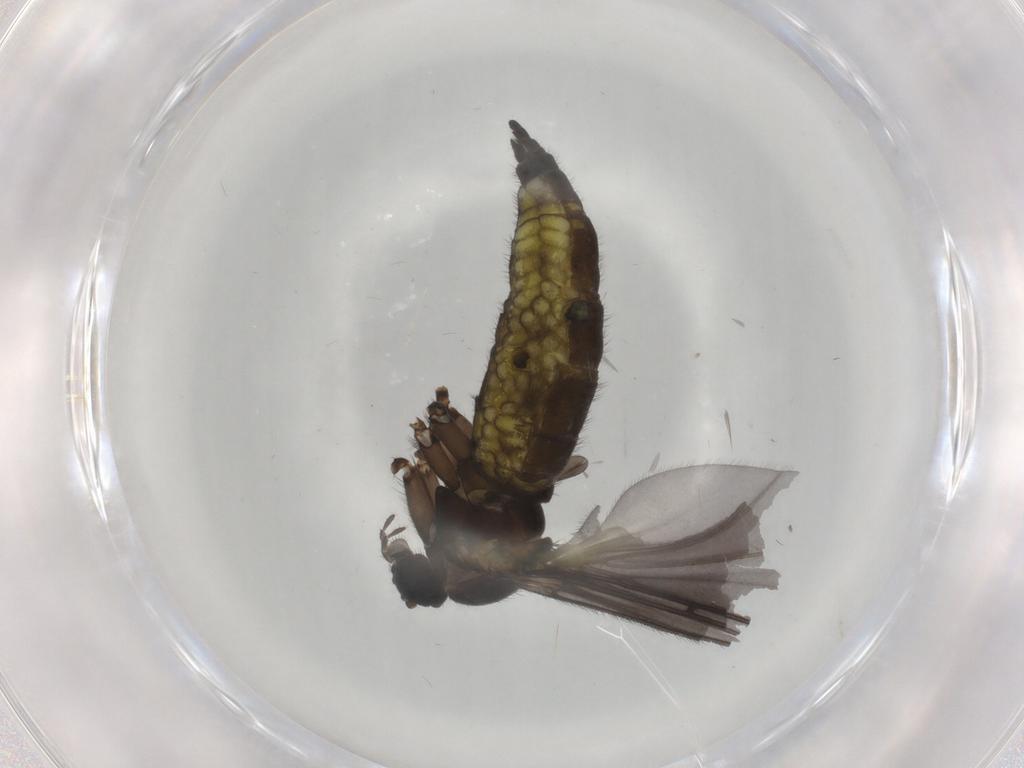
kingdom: Animalia
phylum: Arthropoda
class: Insecta
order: Diptera
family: Sciaridae
